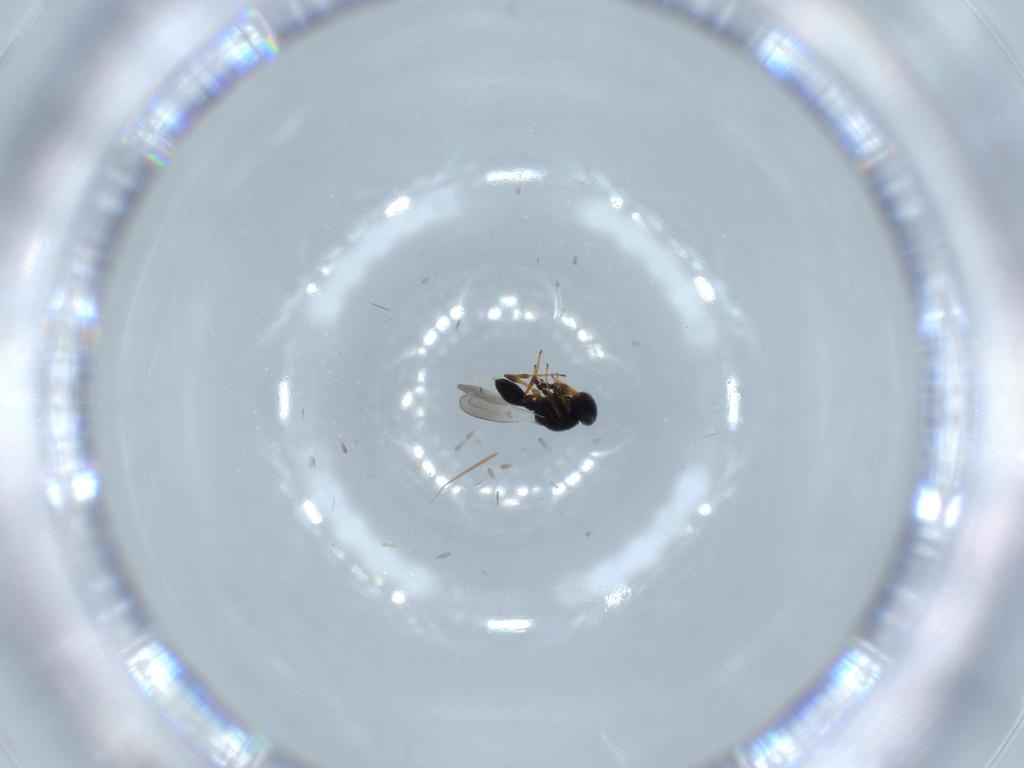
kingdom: Animalia
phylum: Arthropoda
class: Insecta
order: Hymenoptera
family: Platygastridae
